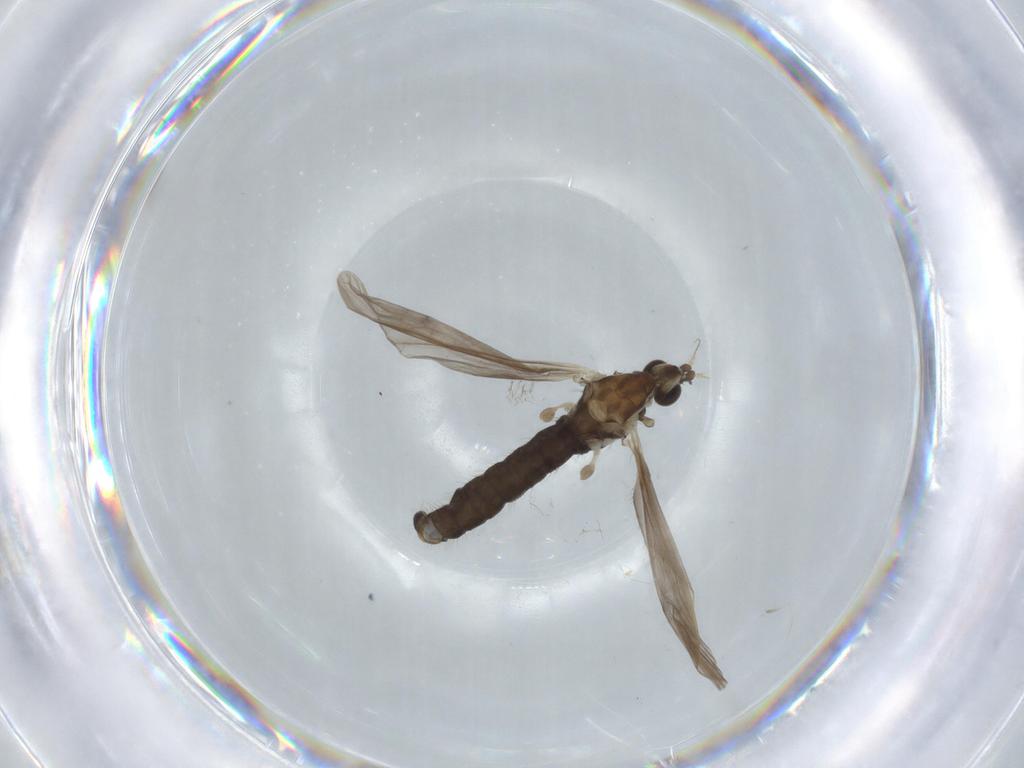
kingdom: Animalia
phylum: Arthropoda
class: Insecta
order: Diptera
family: Limoniidae
